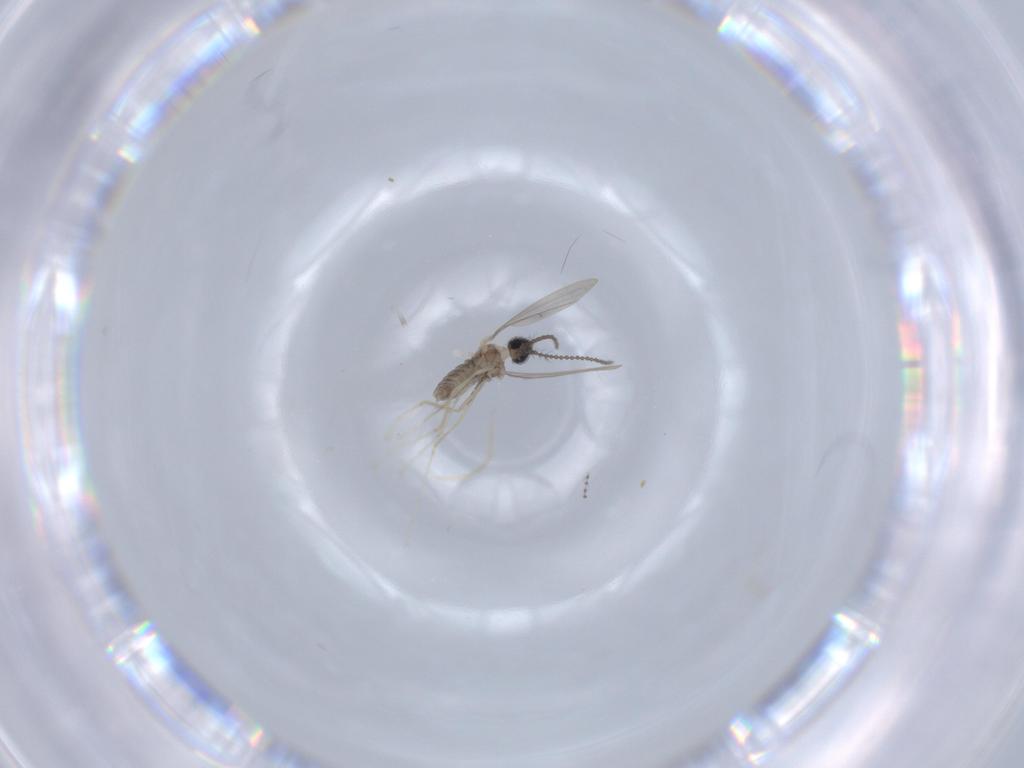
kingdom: Animalia
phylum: Arthropoda
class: Insecta
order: Diptera
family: Cecidomyiidae
